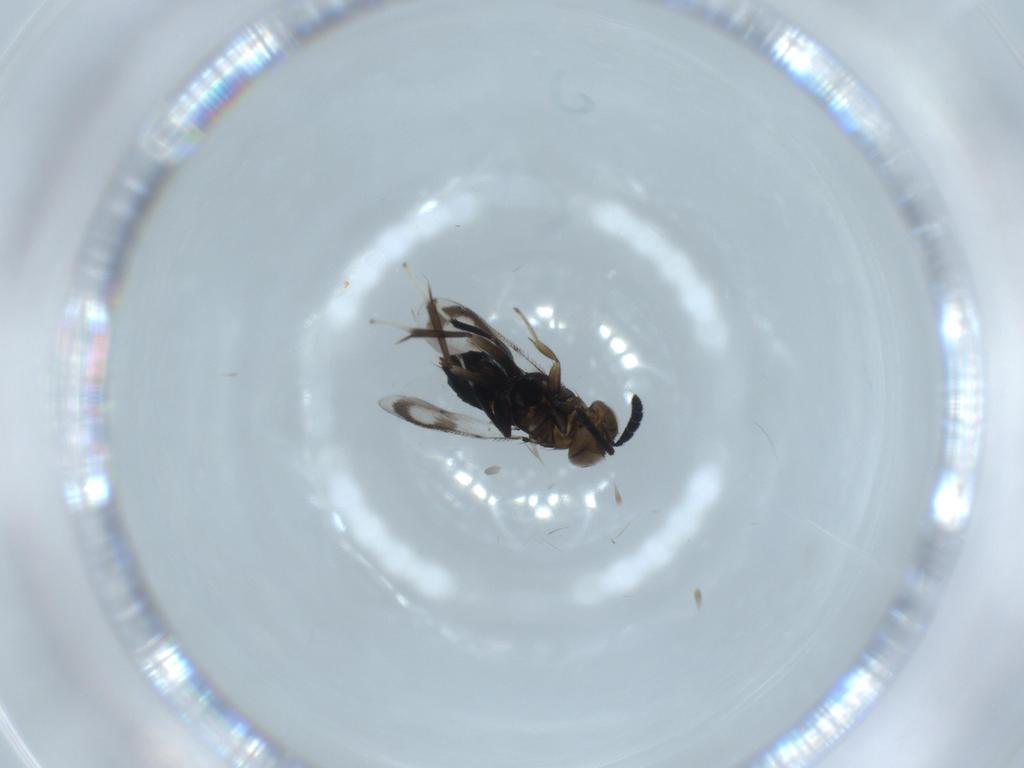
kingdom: Animalia
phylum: Arthropoda
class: Insecta
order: Hymenoptera
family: Aphelinidae
